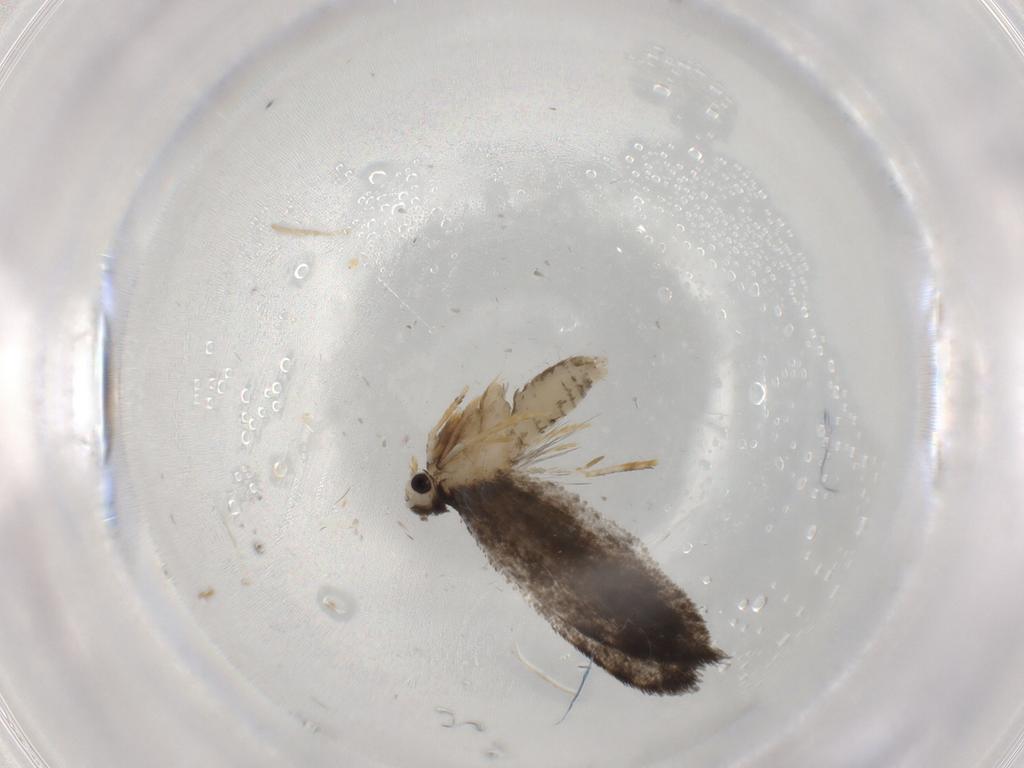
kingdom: Animalia
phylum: Arthropoda
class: Insecta
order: Lepidoptera
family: Psychidae
